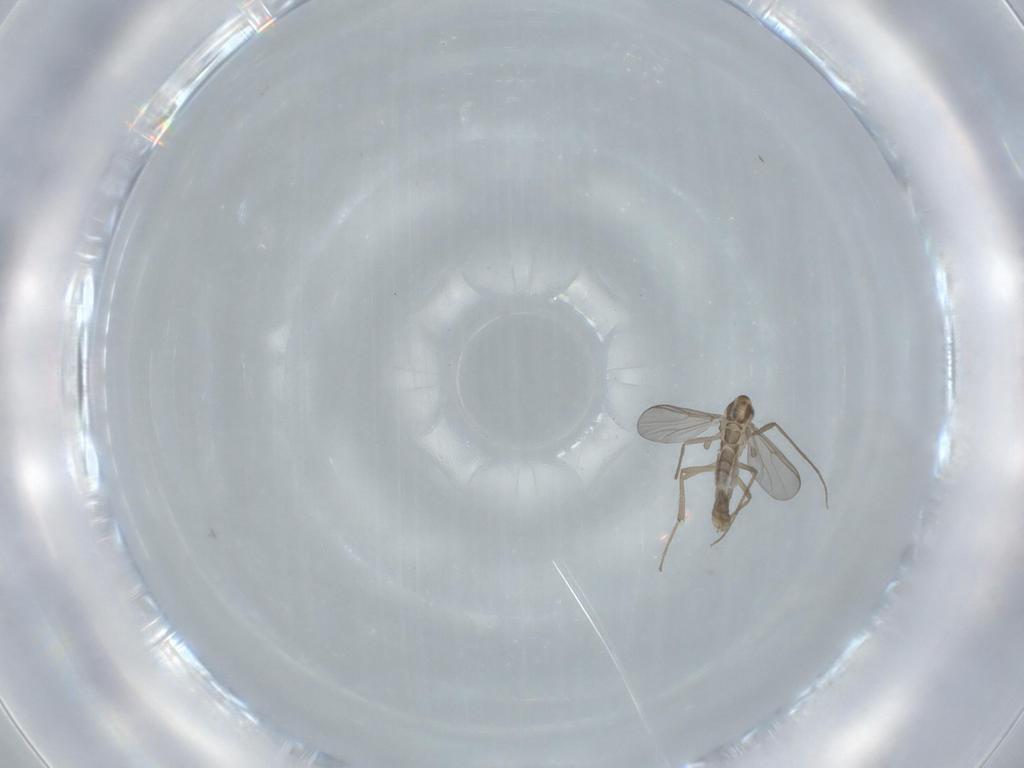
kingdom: Animalia
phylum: Arthropoda
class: Insecta
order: Diptera
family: Chironomidae
